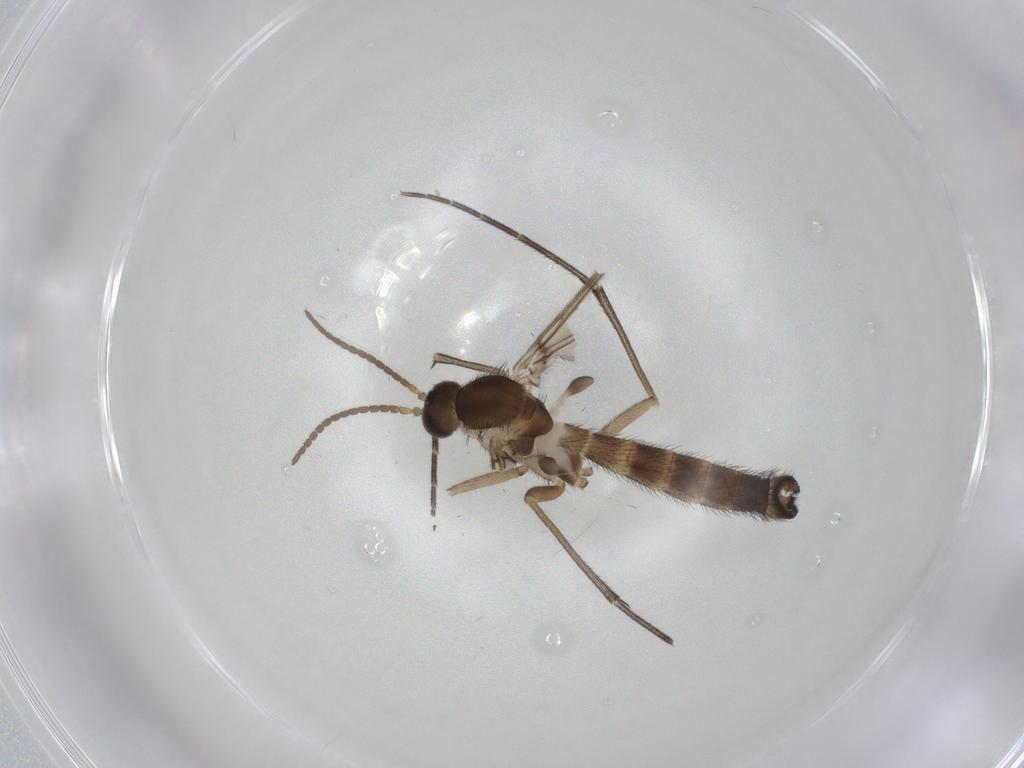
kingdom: Animalia
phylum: Arthropoda
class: Insecta
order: Diptera
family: Keroplatidae
